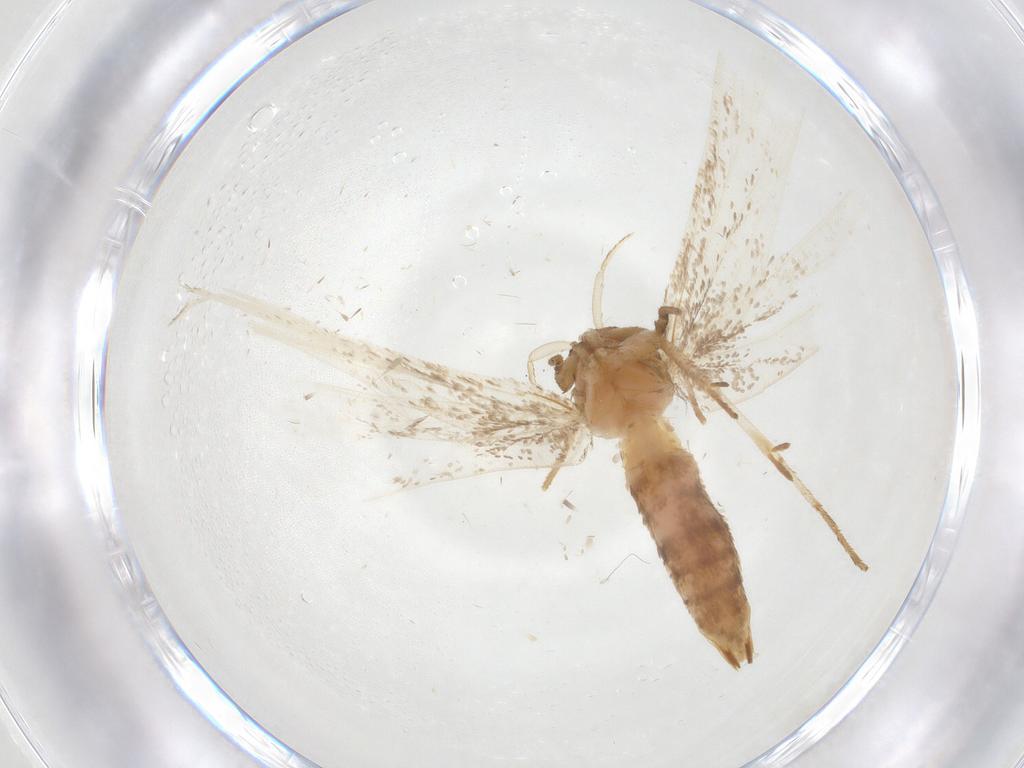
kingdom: Animalia
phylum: Arthropoda
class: Insecta
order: Lepidoptera
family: Gelechiidae
